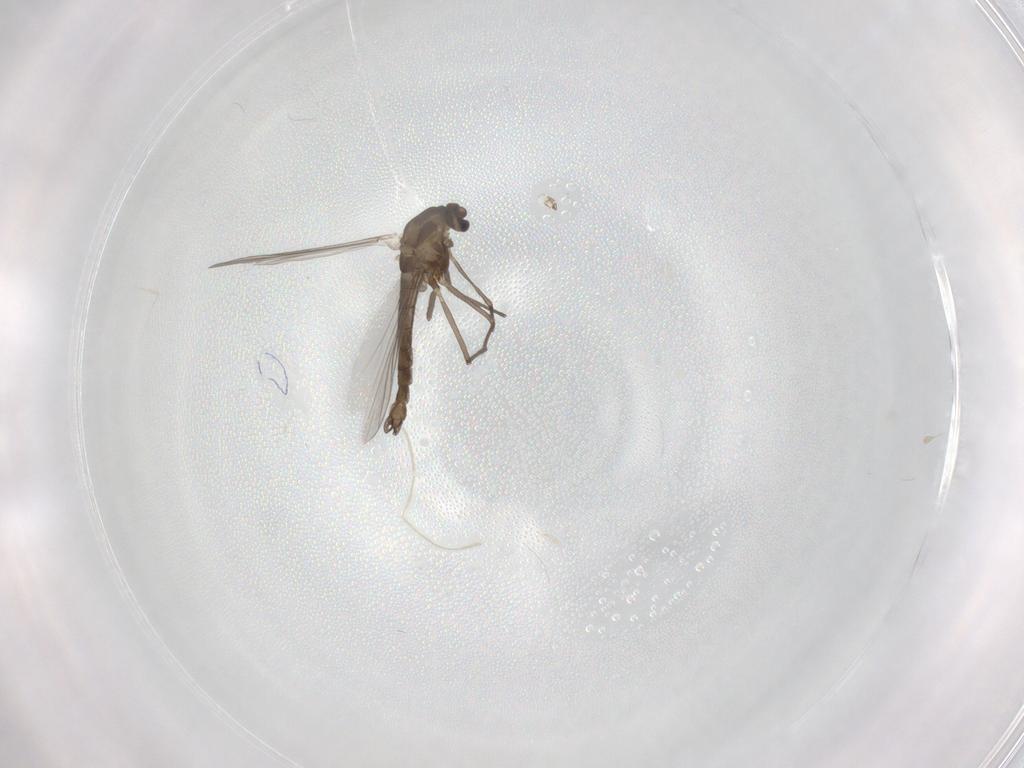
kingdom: Animalia
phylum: Arthropoda
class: Insecta
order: Diptera
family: Chironomidae
